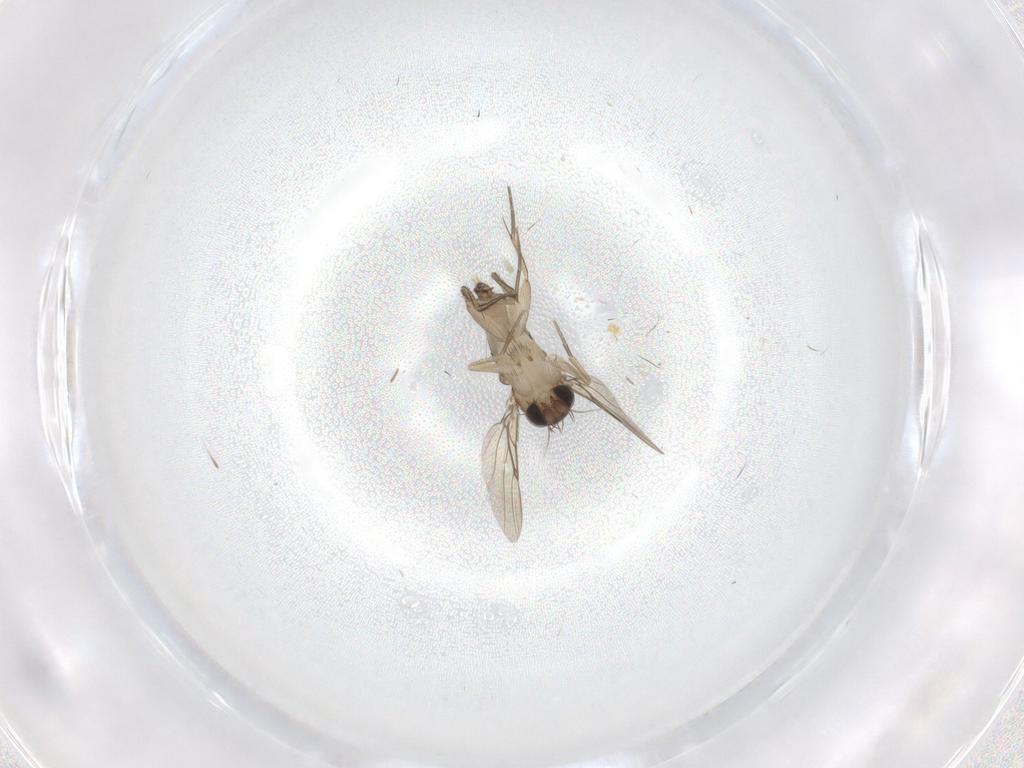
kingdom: Animalia
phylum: Arthropoda
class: Insecta
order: Diptera
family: Phoridae
